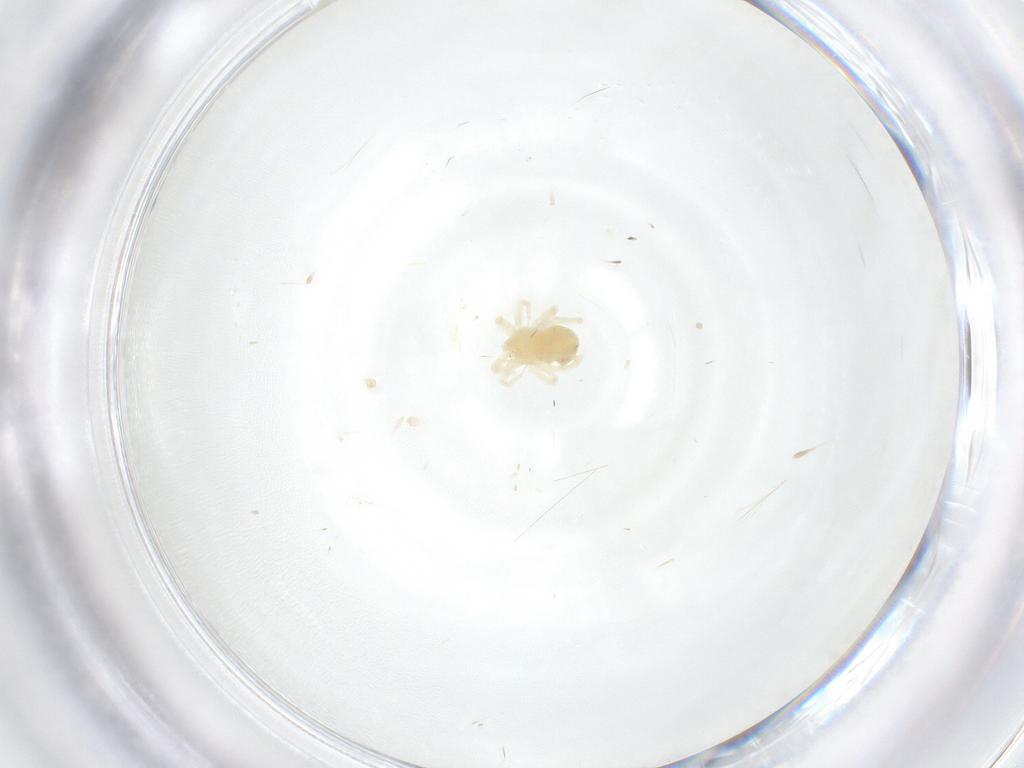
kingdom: Animalia
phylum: Arthropoda
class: Arachnida
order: Trombidiformes
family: Anystidae
